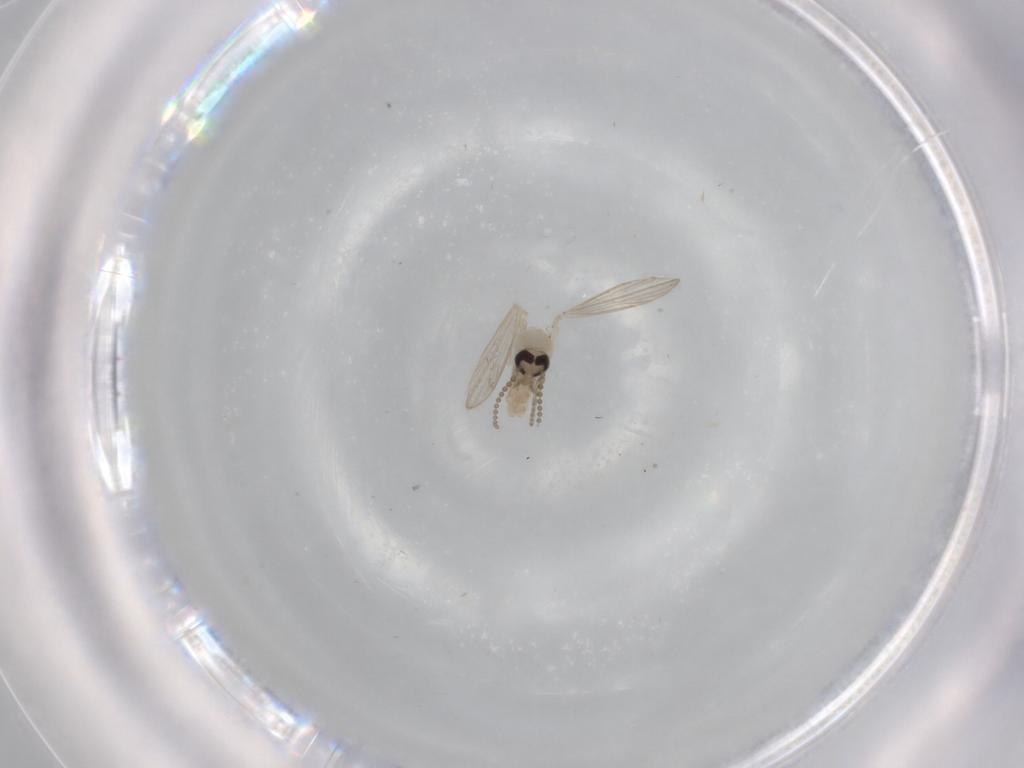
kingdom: Animalia
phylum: Arthropoda
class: Insecta
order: Diptera
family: Psychodidae
